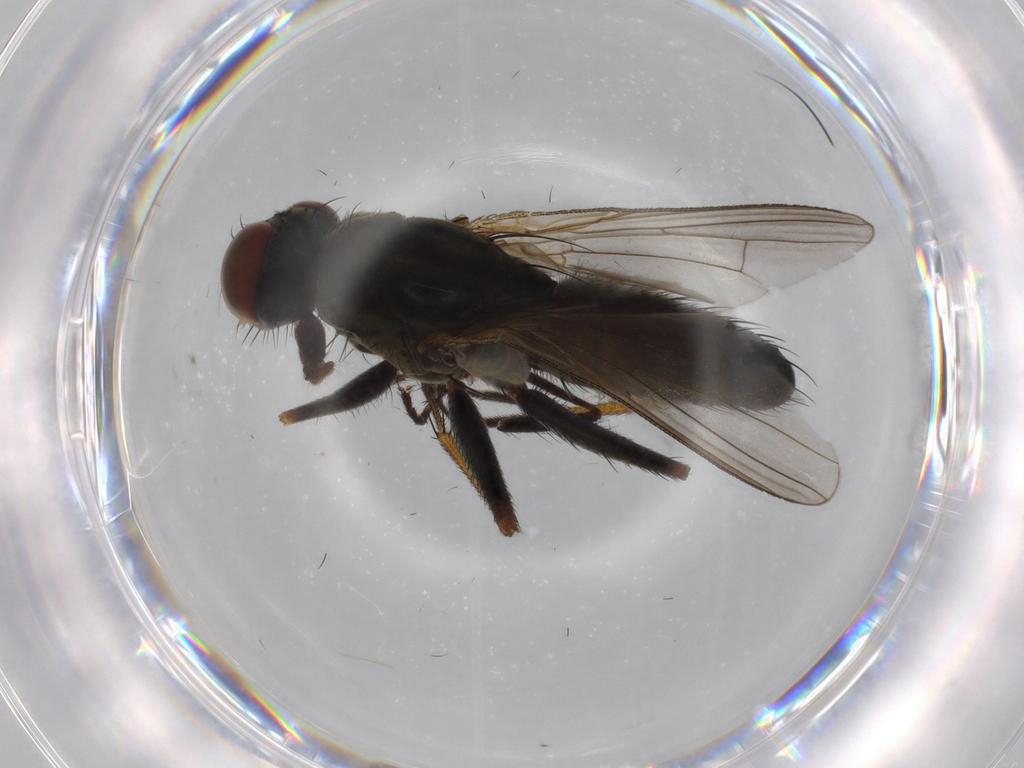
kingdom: Animalia
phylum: Arthropoda
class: Insecta
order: Diptera
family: Muscidae
